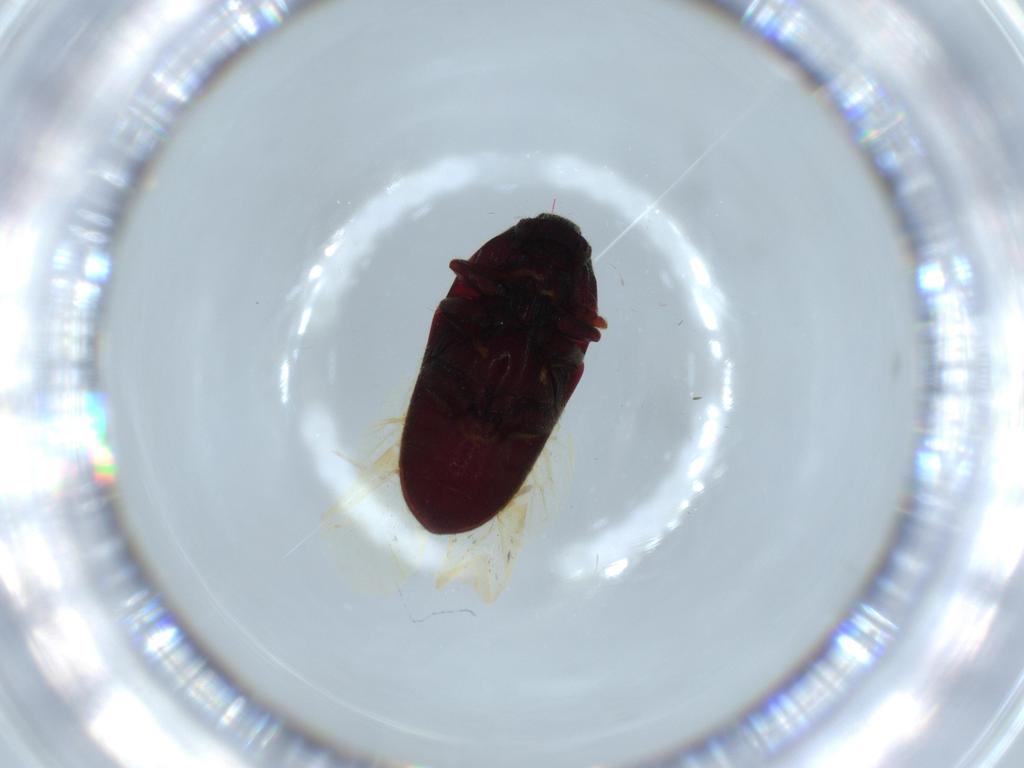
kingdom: Animalia
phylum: Arthropoda
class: Insecta
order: Coleoptera
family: Throscidae
